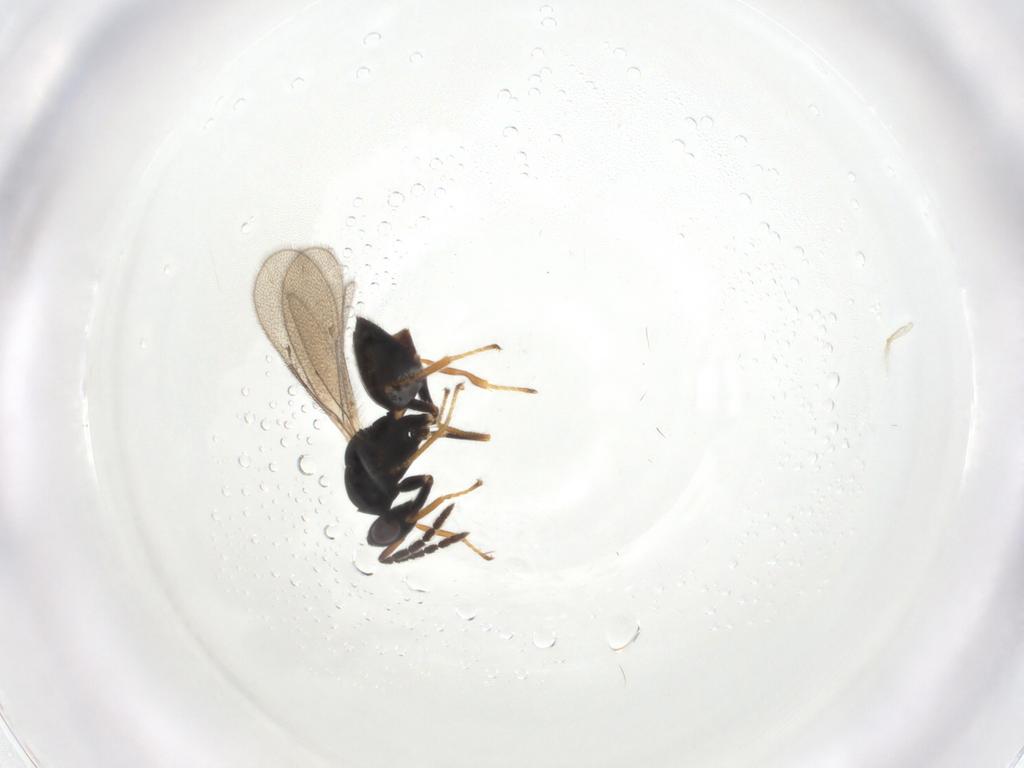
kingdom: Animalia
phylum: Arthropoda
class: Insecta
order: Hymenoptera
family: Eulophidae
